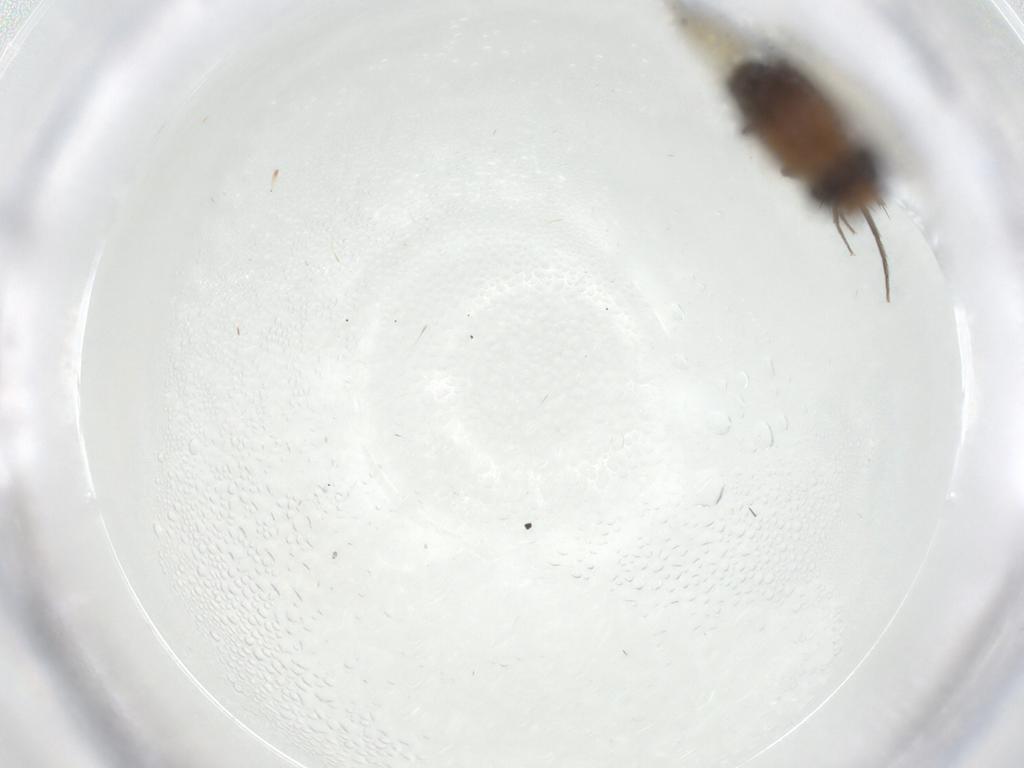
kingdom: Animalia
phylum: Arthropoda
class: Insecta
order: Diptera
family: Phoridae
